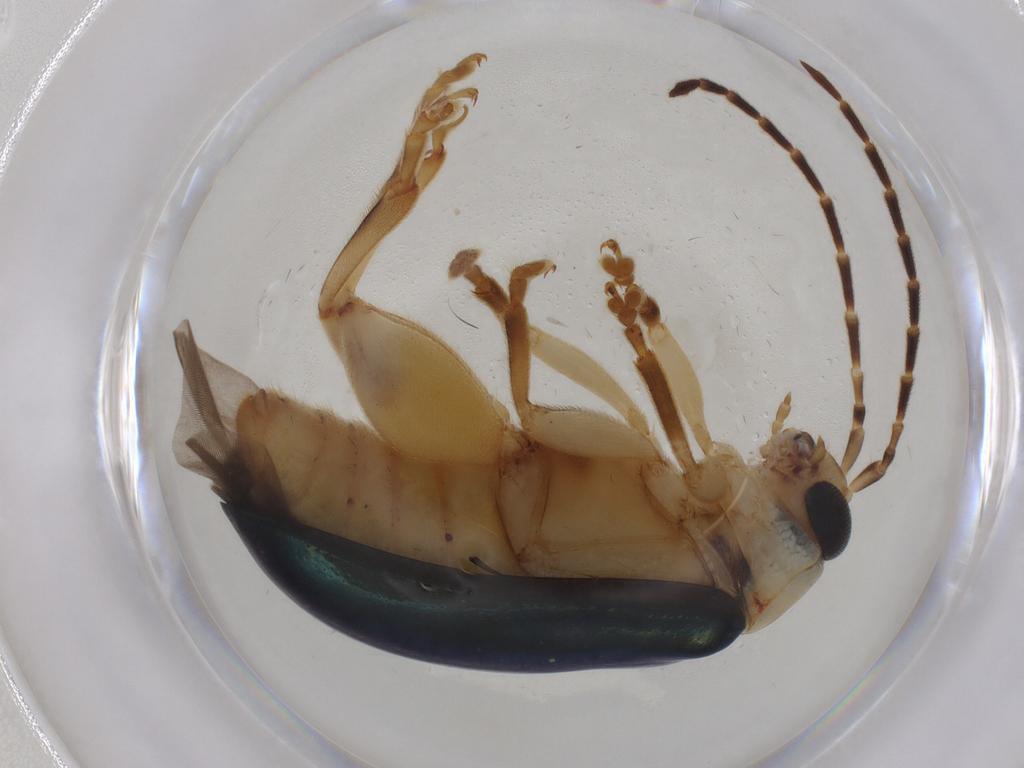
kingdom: Animalia
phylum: Arthropoda
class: Insecta
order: Coleoptera
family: Chrysomelidae
